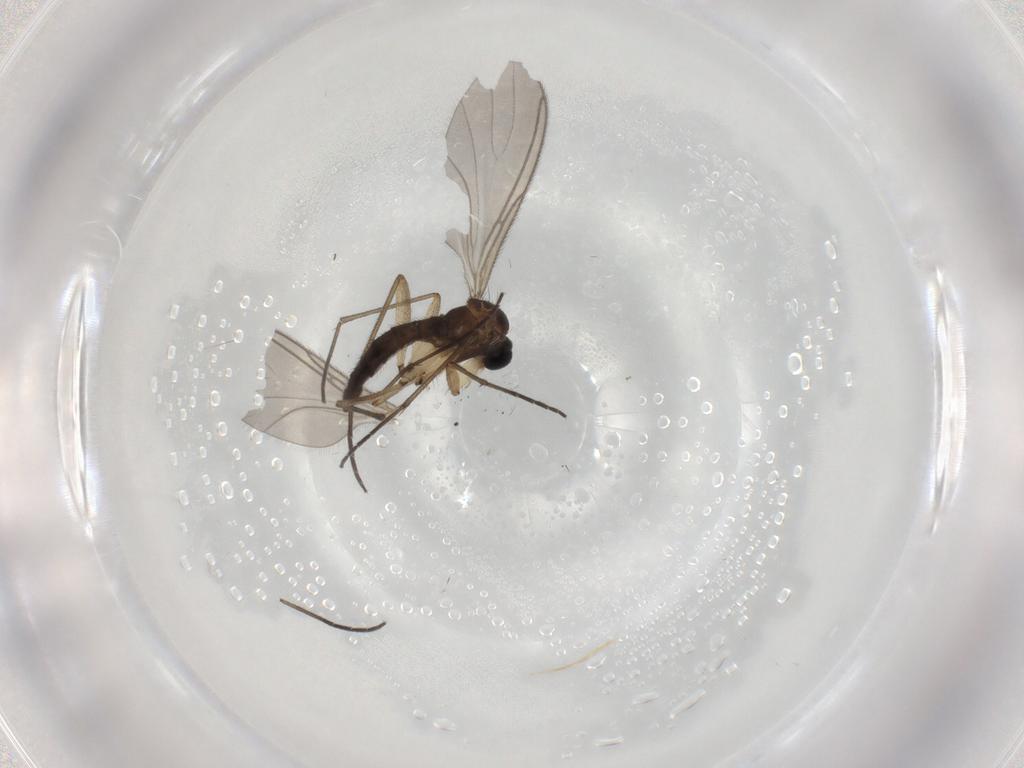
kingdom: Animalia
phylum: Arthropoda
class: Insecta
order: Diptera
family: Sciaridae
